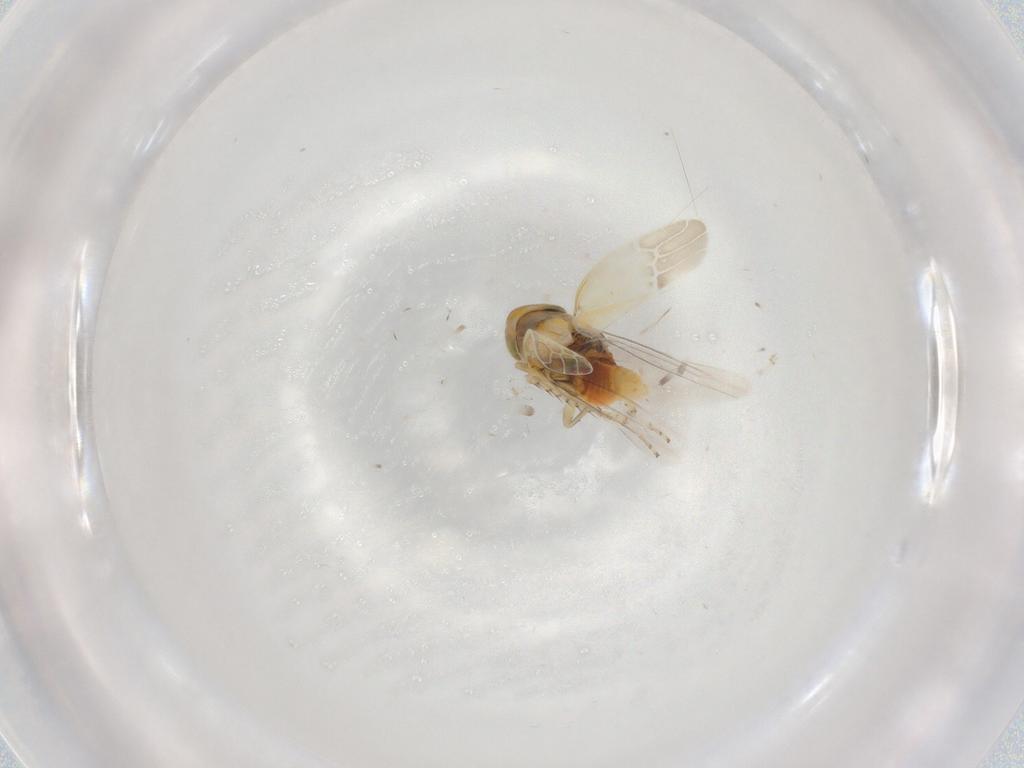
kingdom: Animalia
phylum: Arthropoda
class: Insecta
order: Hemiptera
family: Cicadellidae
